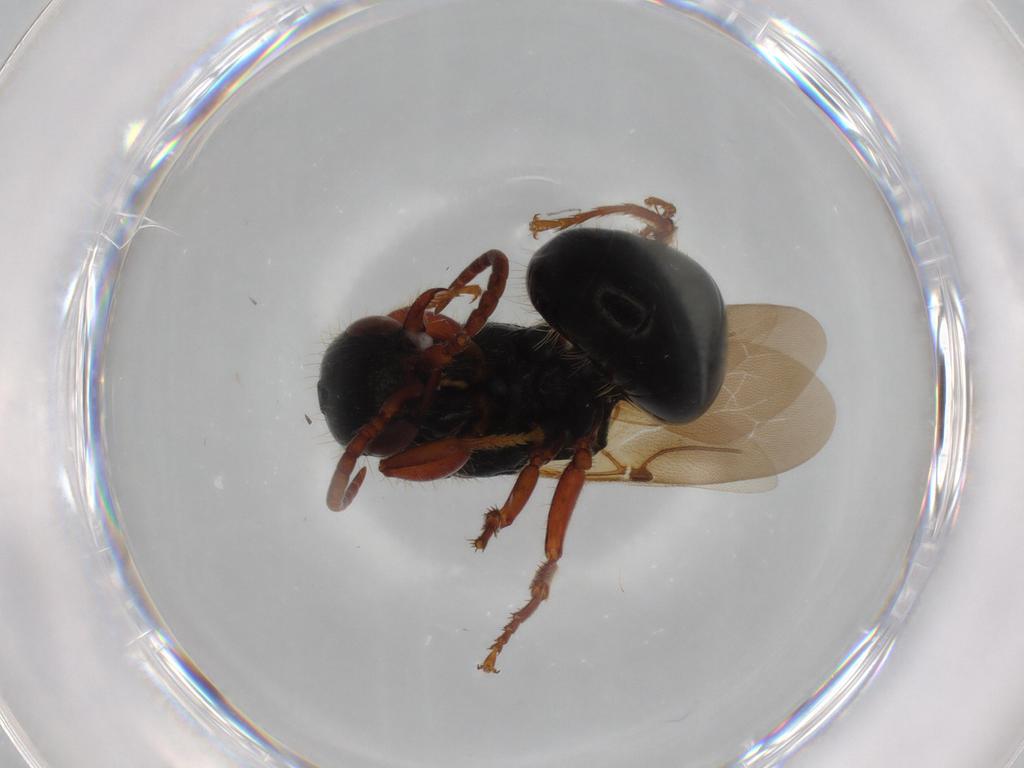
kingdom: Animalia
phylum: Arthropoda
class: Insecta
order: Hymenoptera
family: Bethylidae
